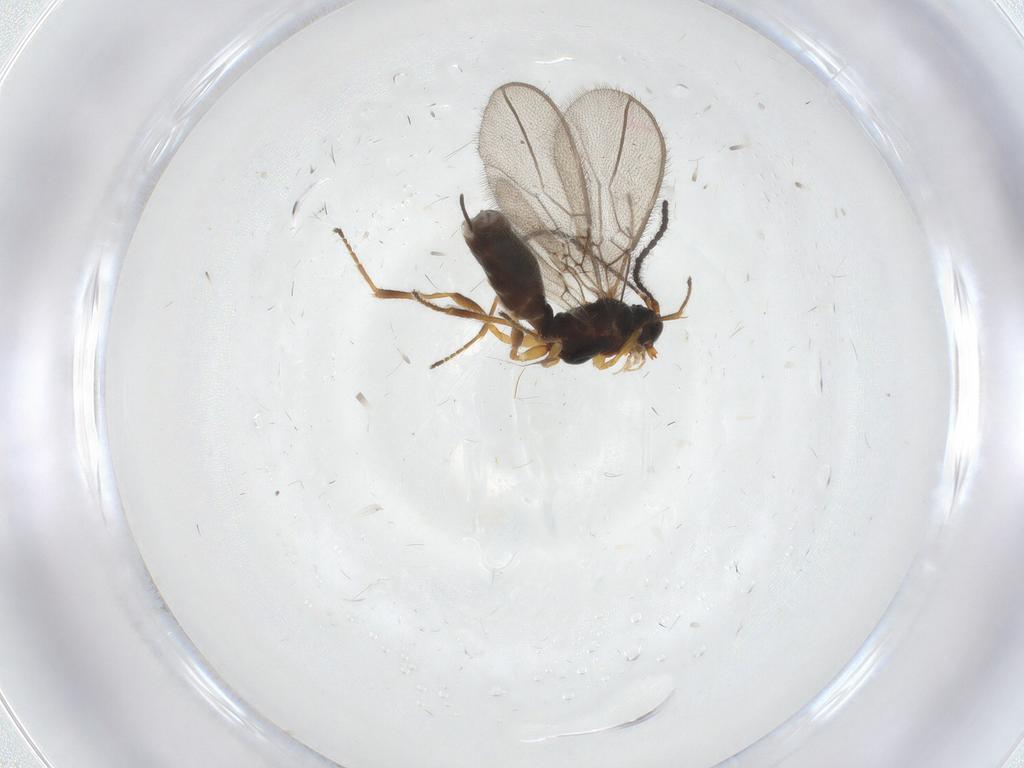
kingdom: Animalia
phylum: Arthropoda
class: Insecta
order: Hymenoptera
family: Braconidae
